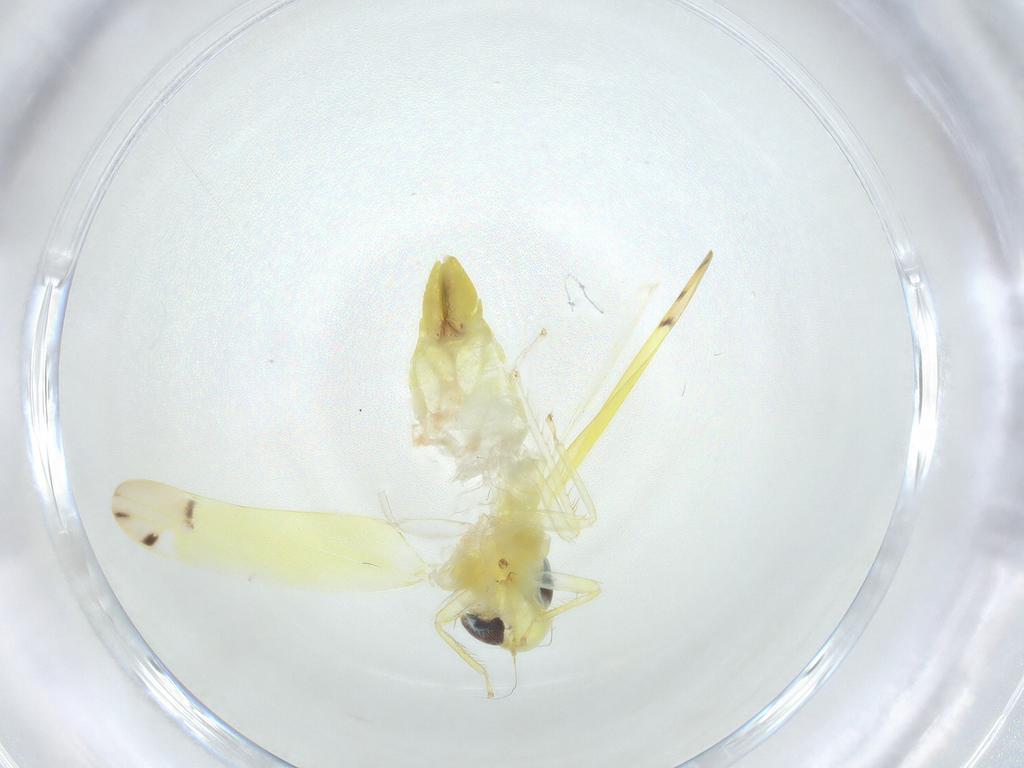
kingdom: Animalia
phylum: Arthropoda
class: Insecta
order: Hemiptera
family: Cicadellidae
